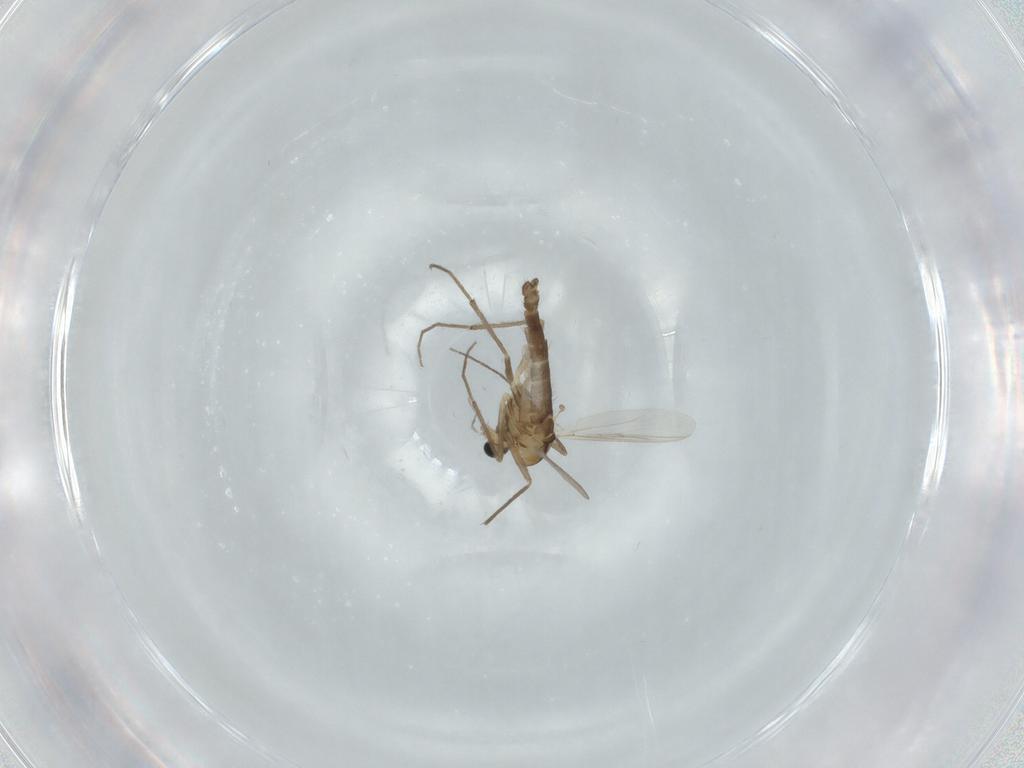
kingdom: Animalia
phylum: Arthropoda
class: Insecta
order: Diptera
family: Chironomidae
